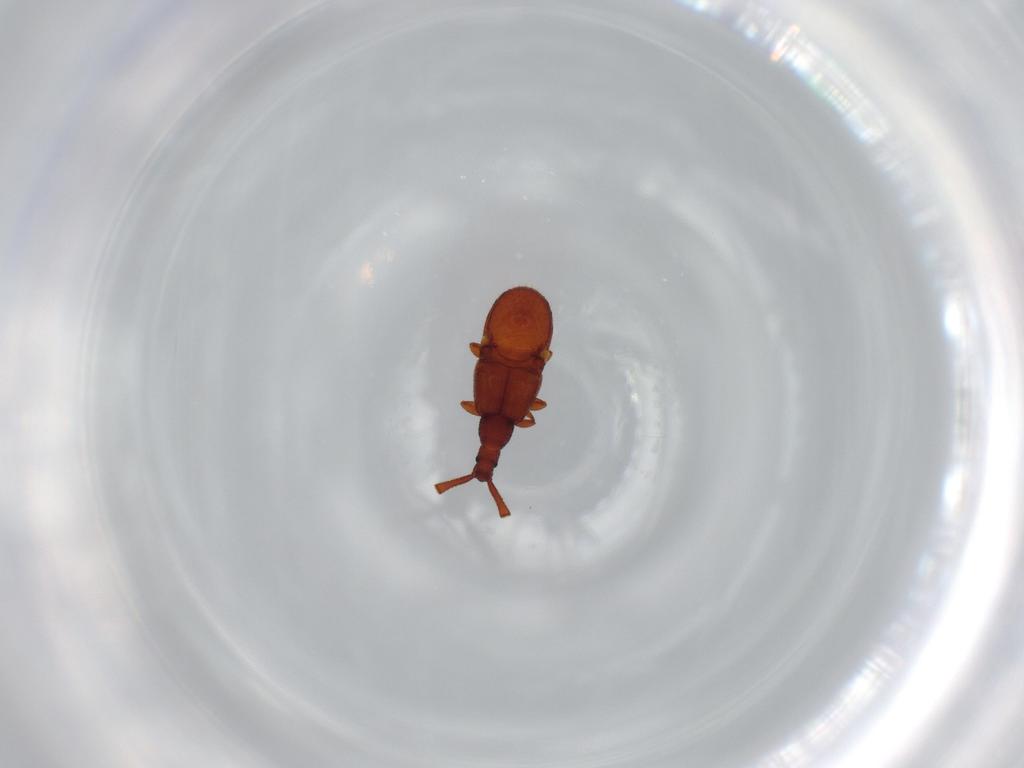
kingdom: Animalia
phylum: Arthropoda
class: Insecta
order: Coleoptera
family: Staphylinidae
